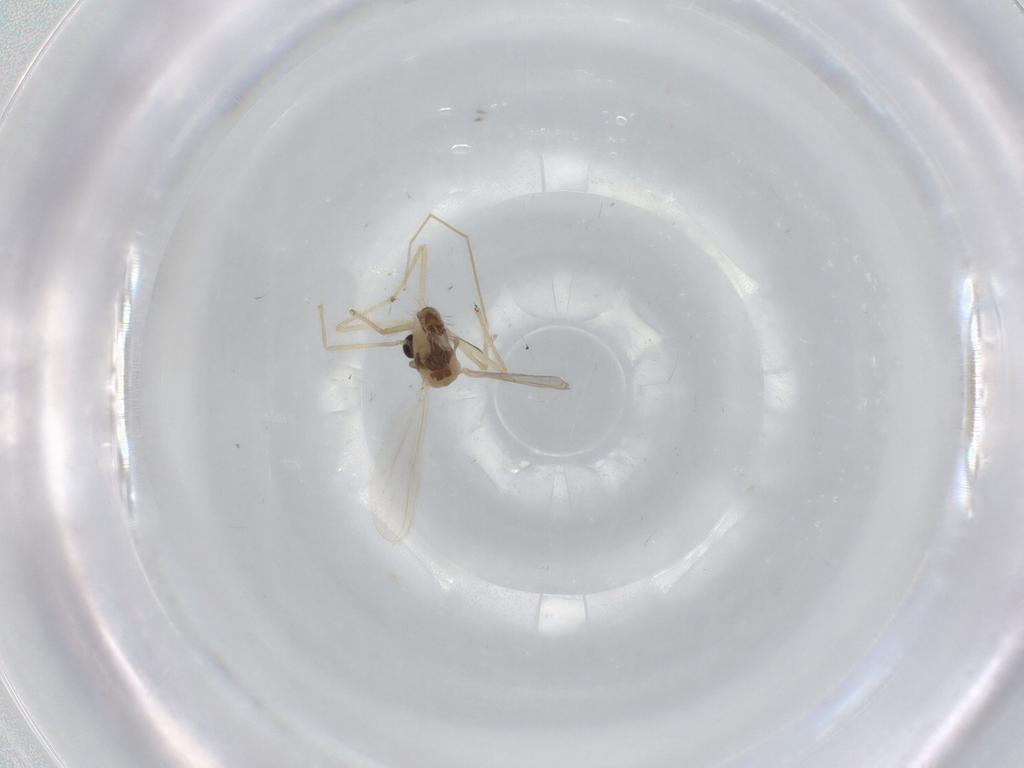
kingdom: Animalia
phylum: Arthropoda
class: Insecta
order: Diptera
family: Chironomidae
